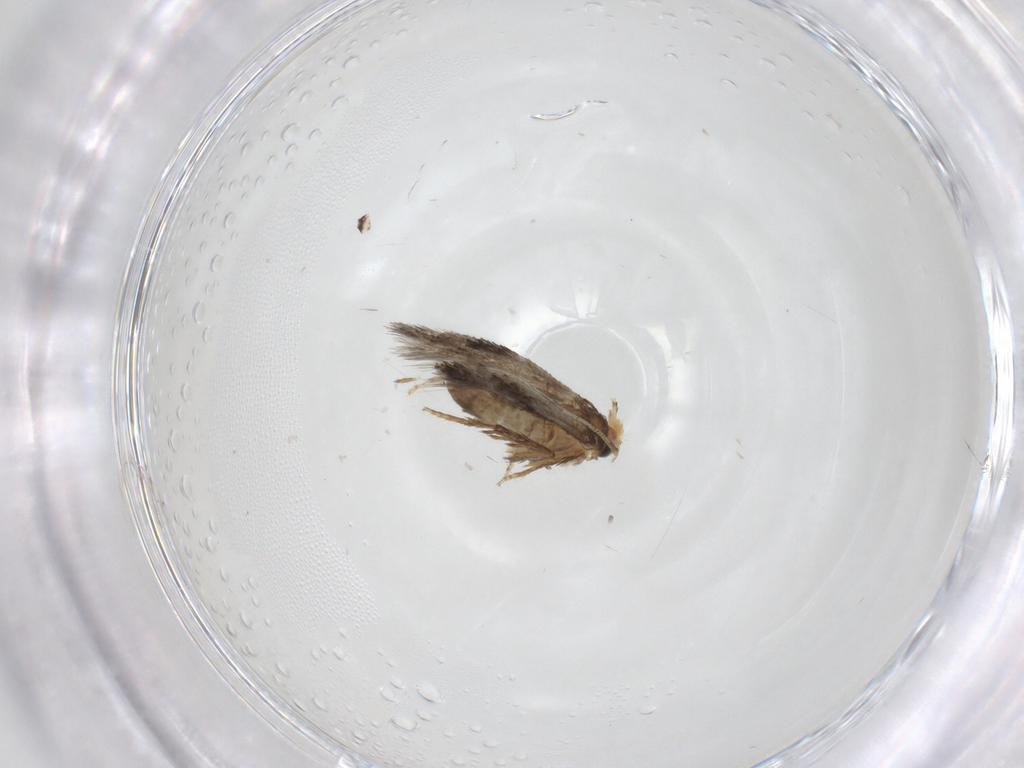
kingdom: Animalia
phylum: Arthropoda
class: Insecta
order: Lepidoptera
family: Nepticulidae
